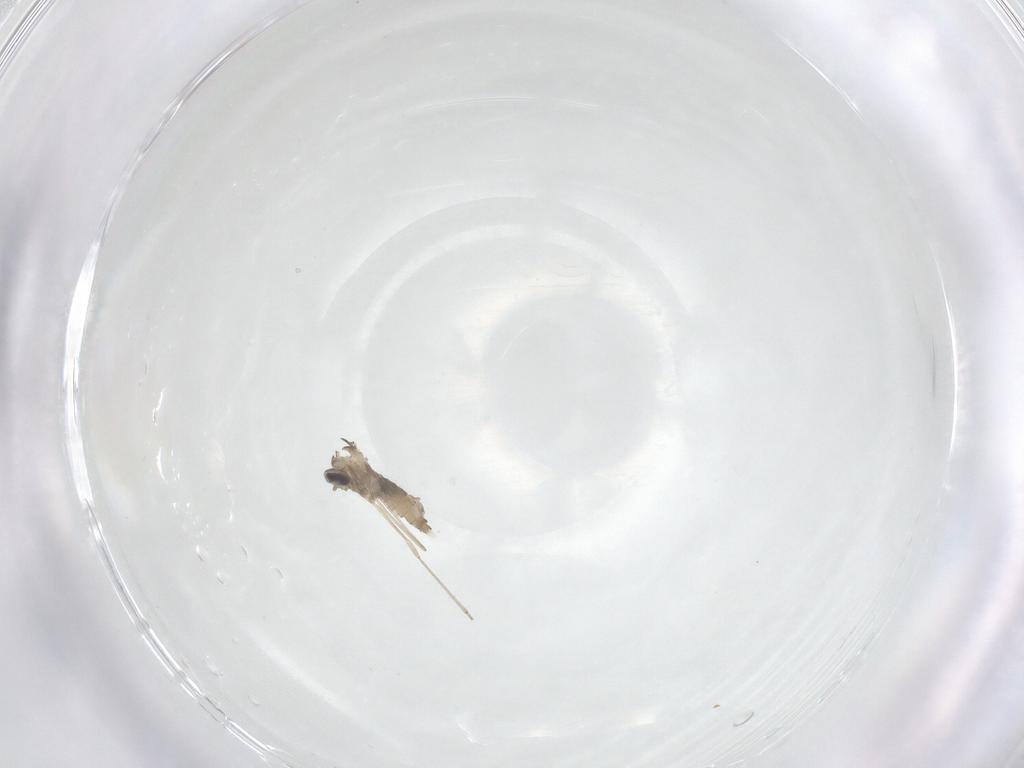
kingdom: Animalia
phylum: Arthropoda
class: Insecta
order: Diptera
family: Cecidomyiidae
